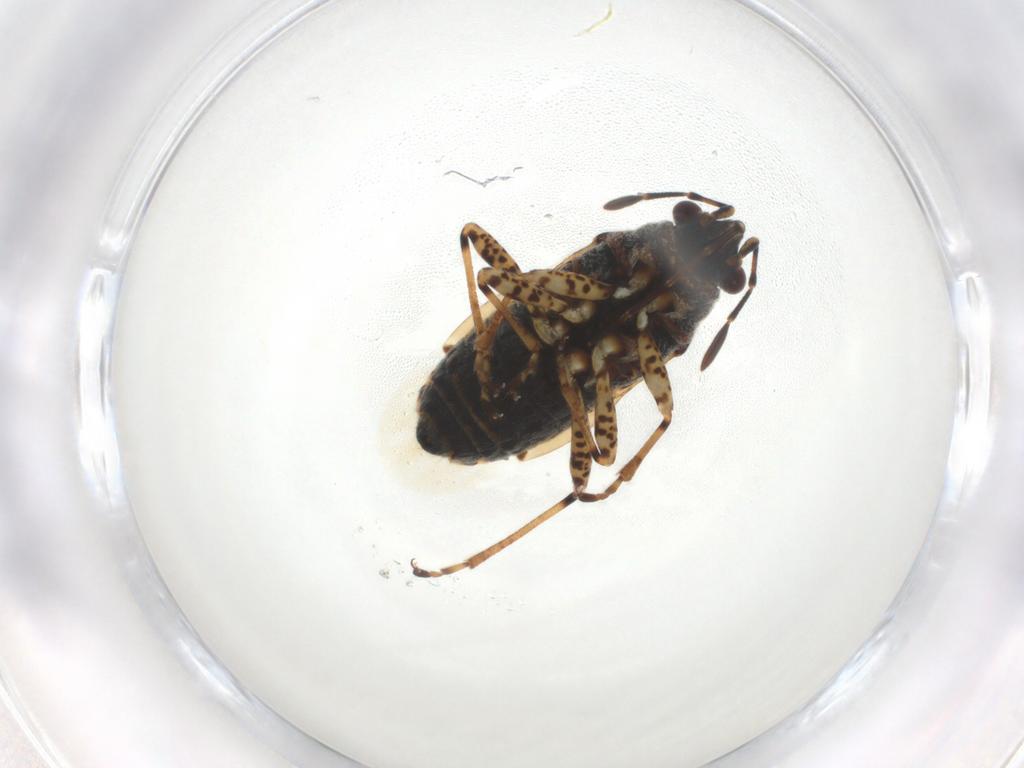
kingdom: Animalia
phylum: Arthropoda
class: Insecta
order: Hemiptera
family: Lygaeidae
